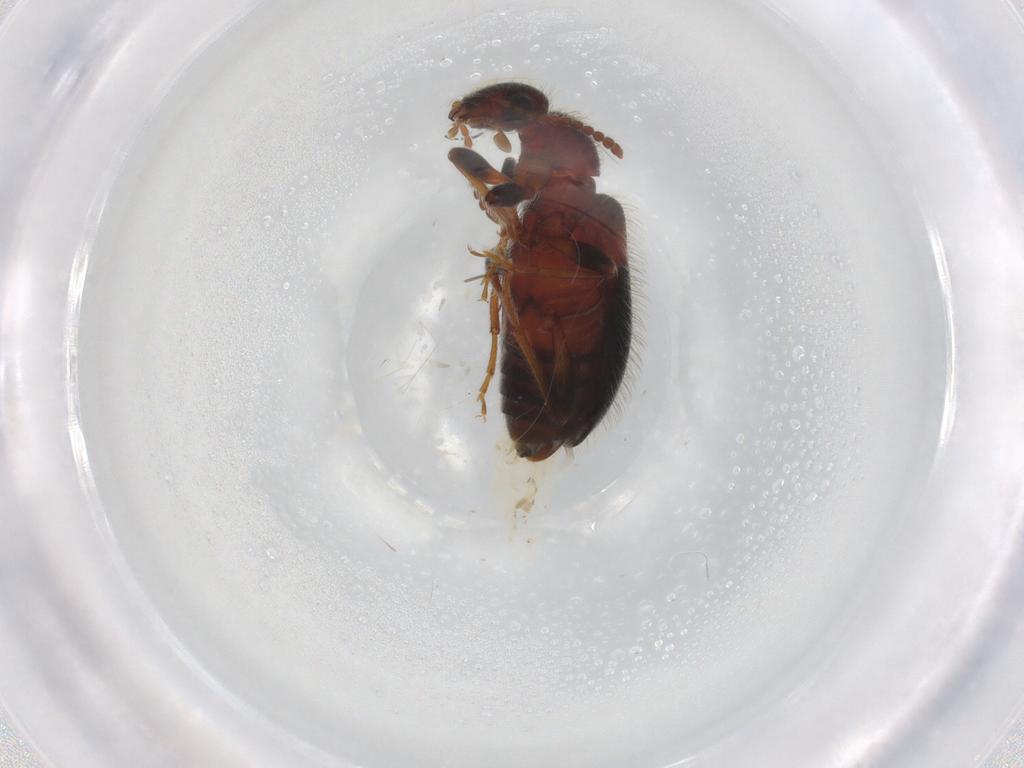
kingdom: Animalia
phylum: Arthropoda
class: Insecta
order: Coleoptera
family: Carabidae
